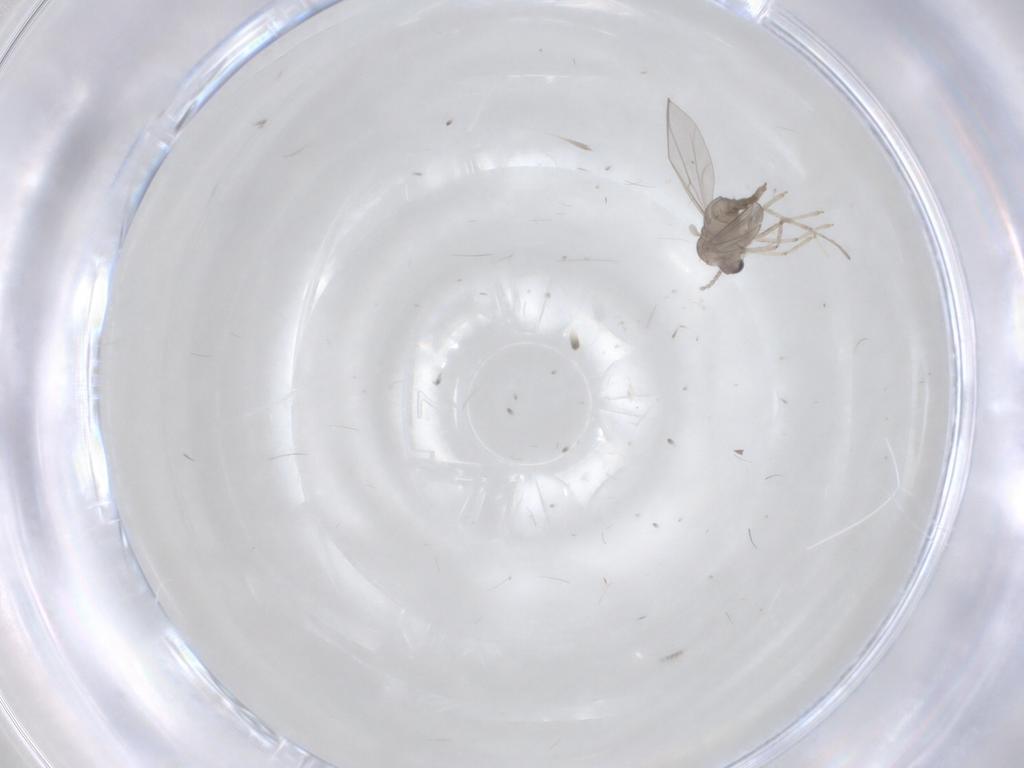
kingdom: Animalia
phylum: Arthropoda
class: Insecta
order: Diptera
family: Cecidomyiidae
